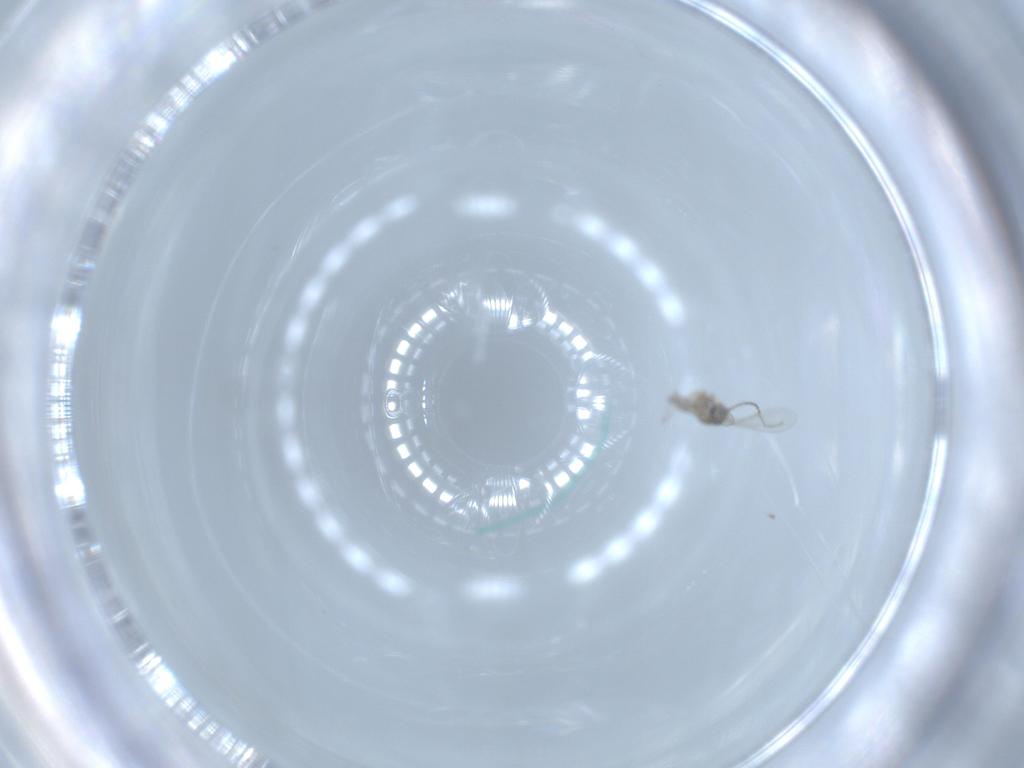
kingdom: Animalia
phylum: Arthropoda
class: Insecta
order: Diptera
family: Cecidomyiidae
